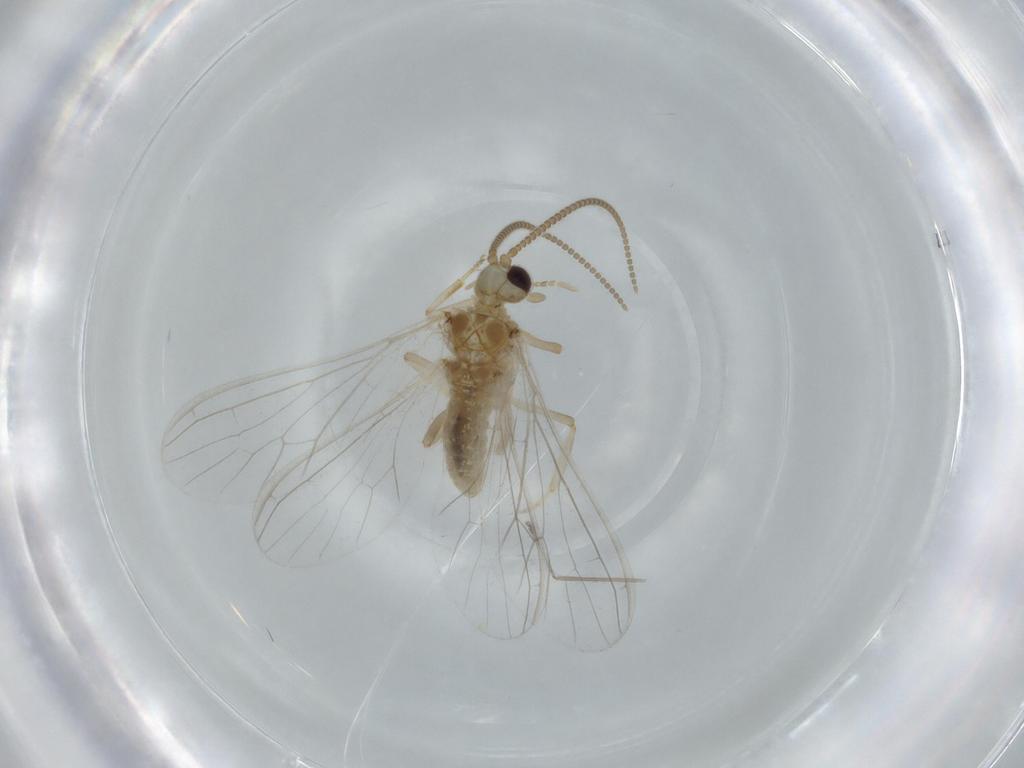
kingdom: Animalia
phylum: Arthropoda
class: Insecta
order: Neuroptera
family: Coniopterygidae
